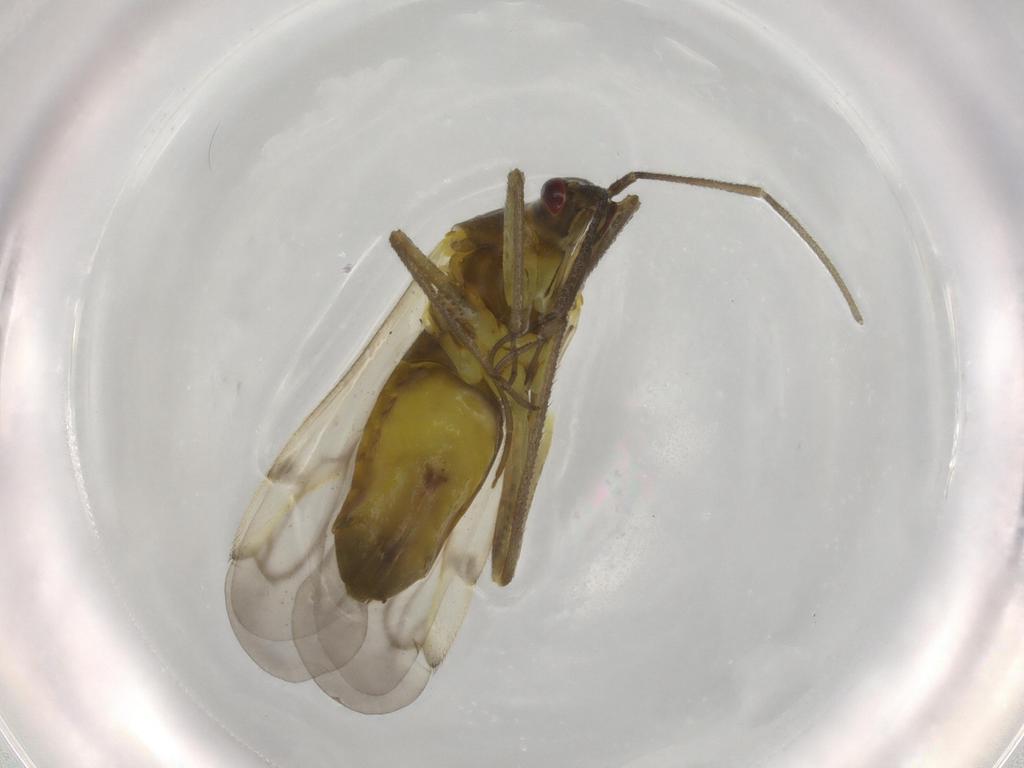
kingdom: Animalia
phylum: Arthropoda
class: Insecta
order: Hemiptera
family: Miridae
